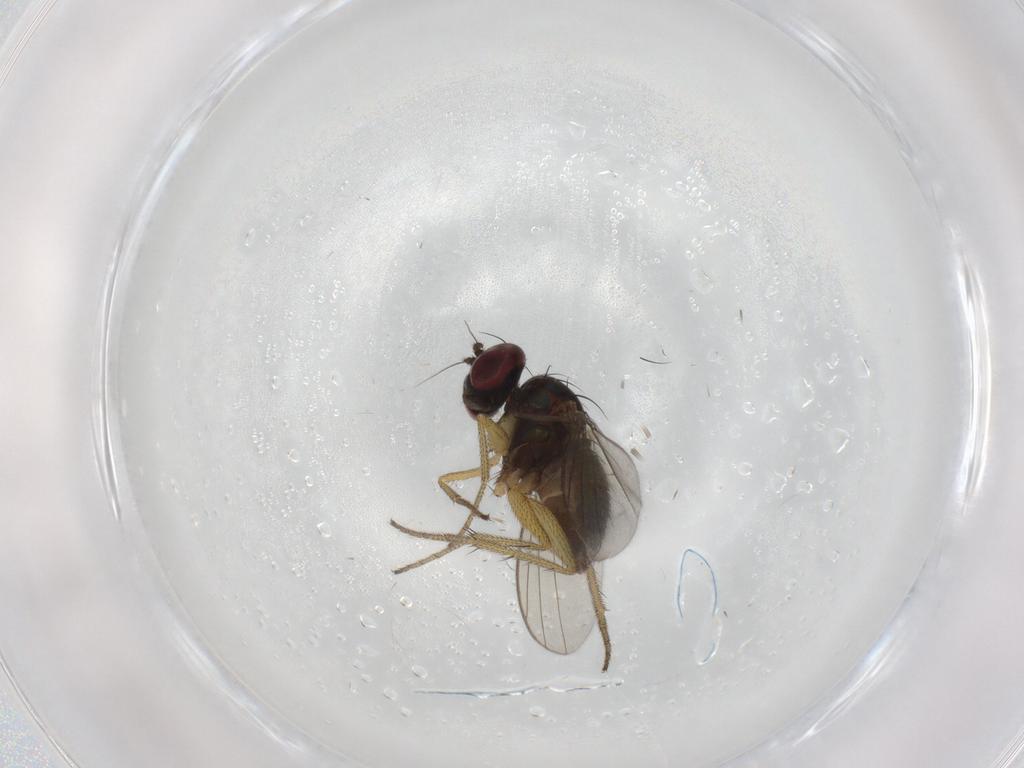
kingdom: Animalia
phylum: Arthropoda
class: Insecta
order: Diptera
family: Dolichopodidae
